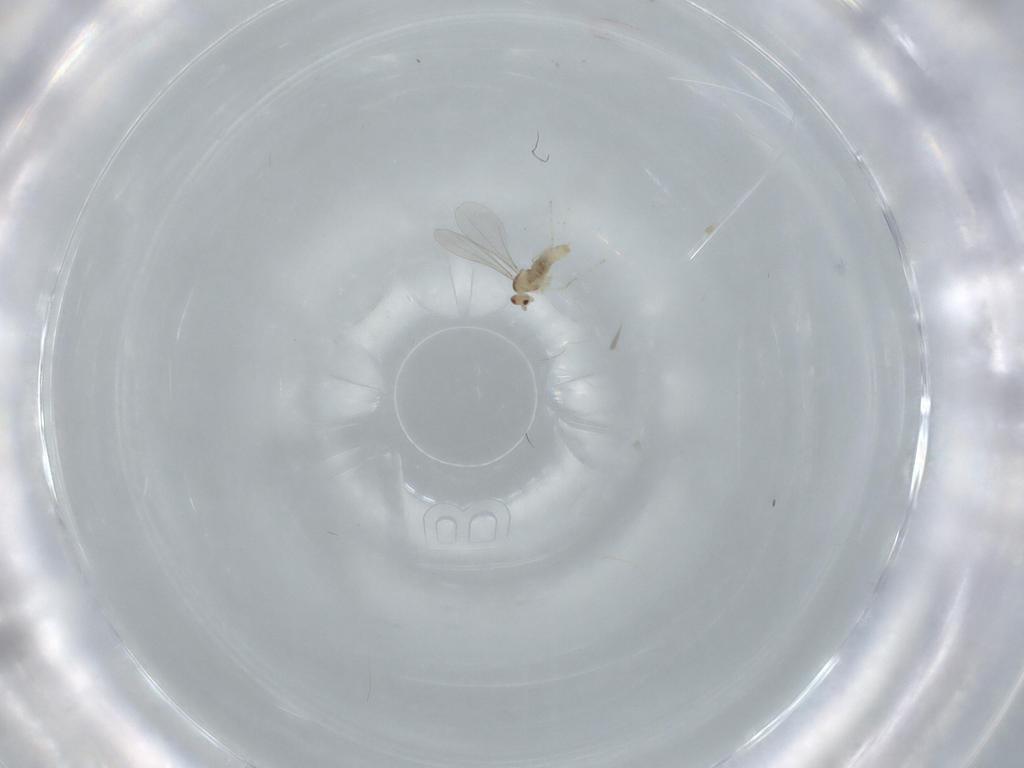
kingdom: Animalia
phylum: Arthropoda
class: Insecta
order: Diptera
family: Cecidomyiidae
